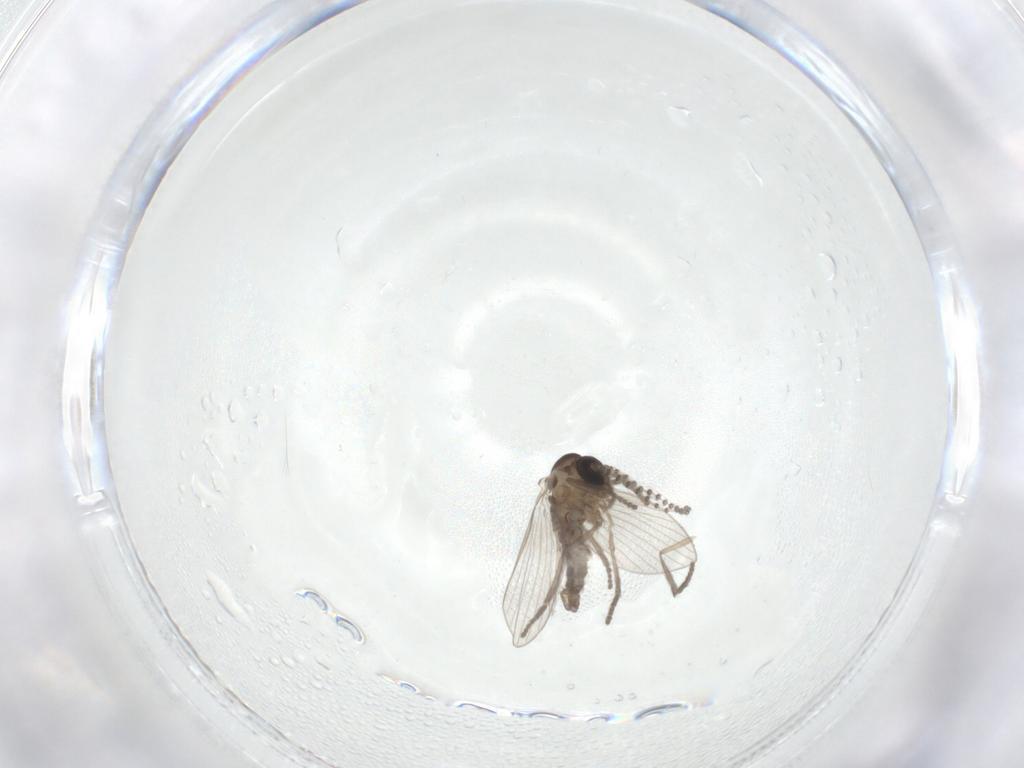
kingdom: Animalia
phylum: Arthropoda
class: Insecta
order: Diptera
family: Psychodidae
